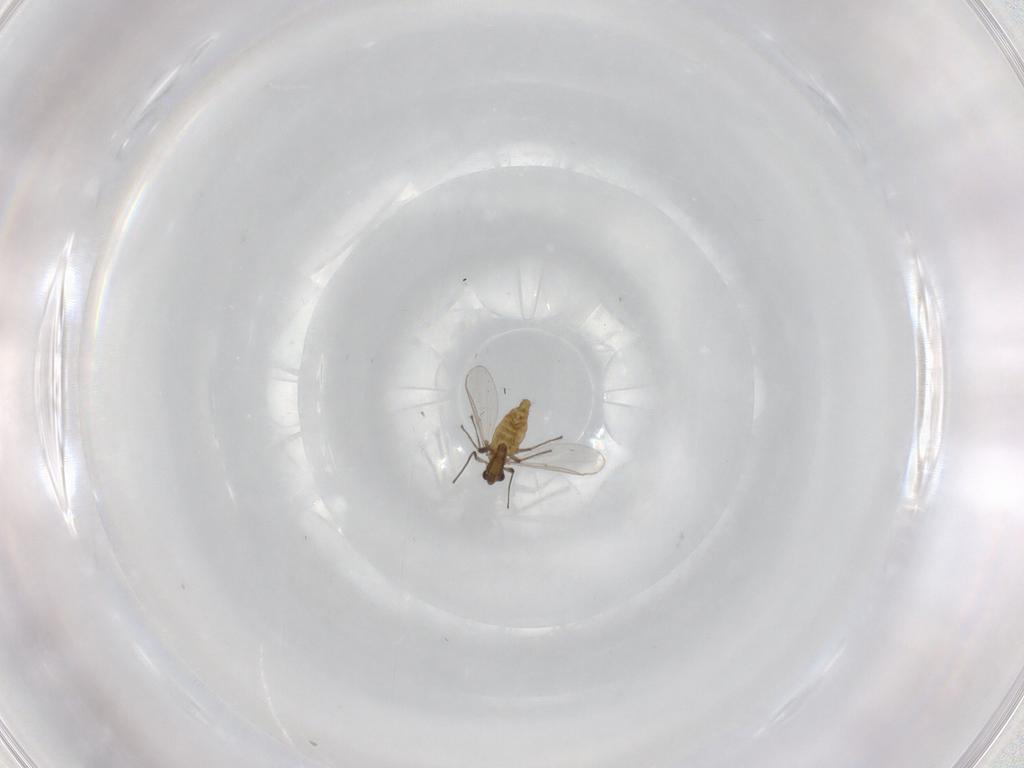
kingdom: Animalia
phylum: Arthropoda
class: Insecta
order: Diptera
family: Chironomidae
